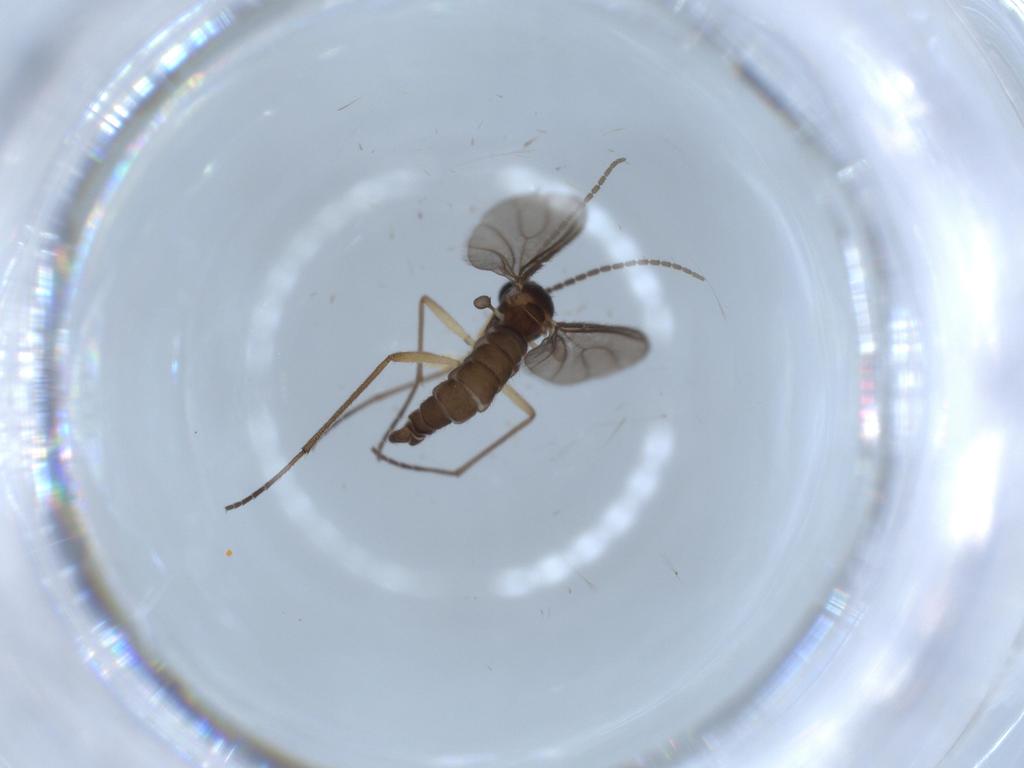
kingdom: Animalia
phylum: Arthropoda
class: Insecta
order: Diptera
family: Sciaridae
